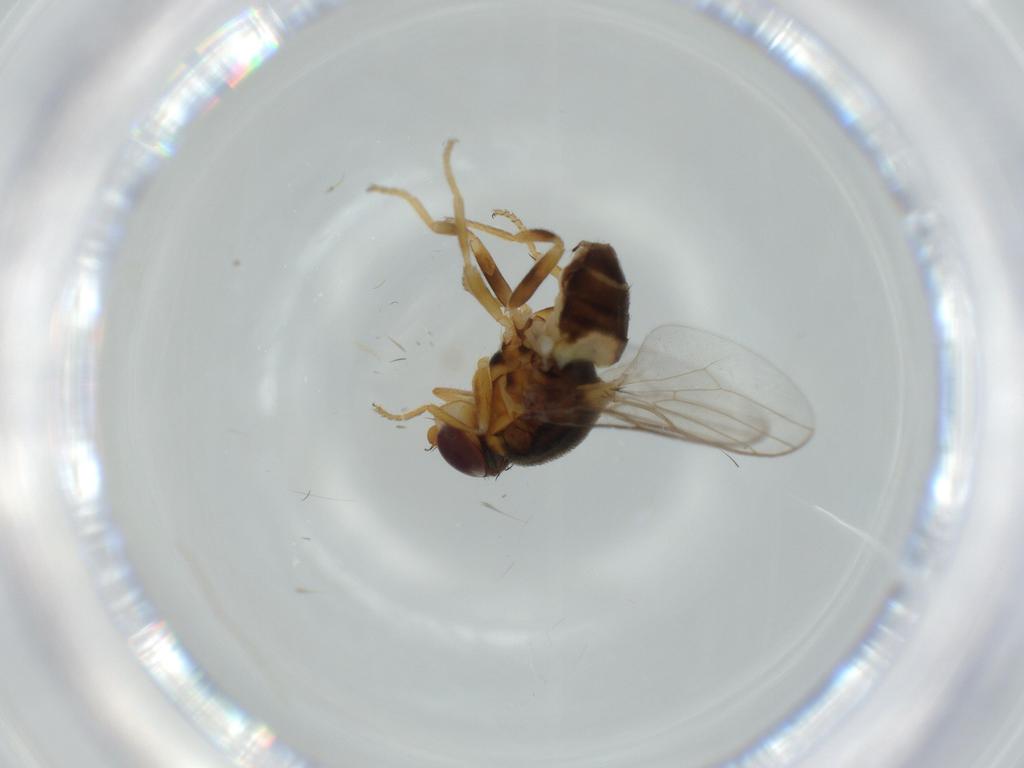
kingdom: Animalia
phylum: Arthropoda
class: Insecta
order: Diptera
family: Chloropidae
